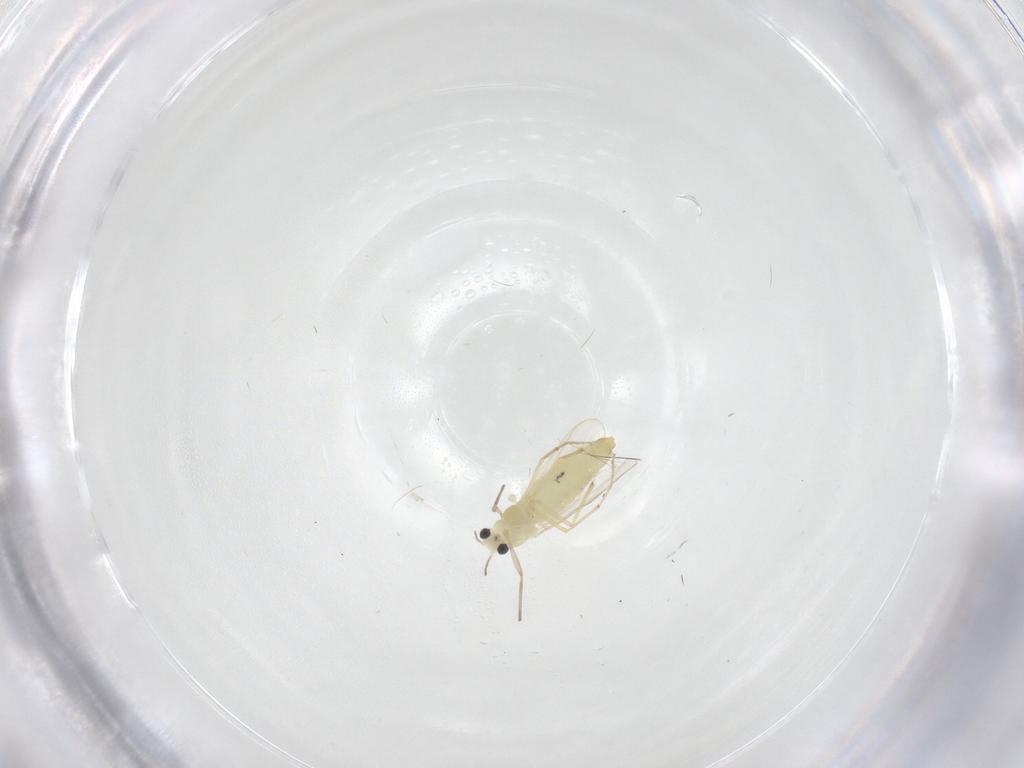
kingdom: Animalia
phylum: Arthropoda
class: Insecta
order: Diptera
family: Chironomidae
